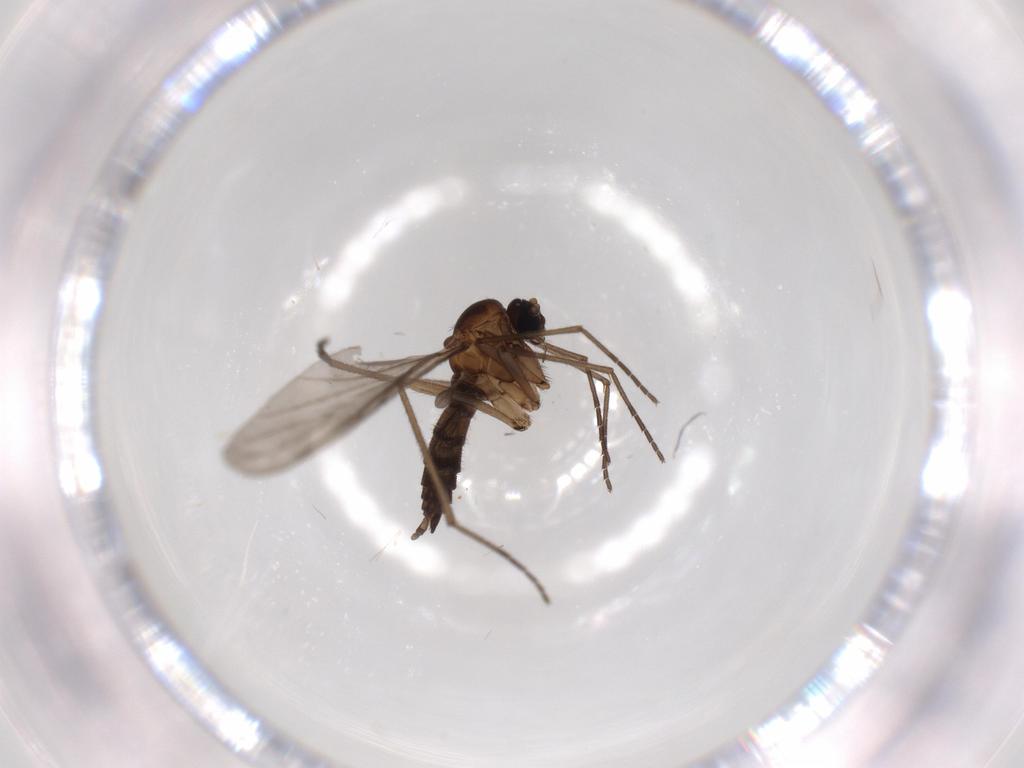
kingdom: Animalia
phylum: Arthropoda
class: Insecta
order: Diptera
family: Sciaridae
